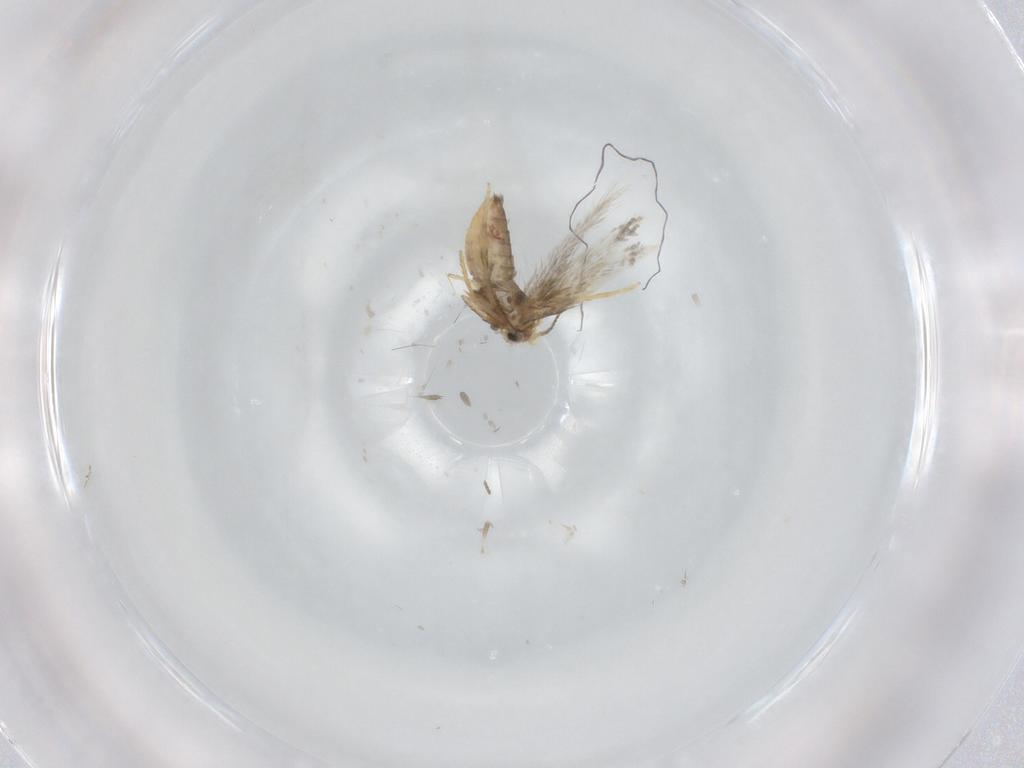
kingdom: Animalia
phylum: Arthropoda
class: Insecta
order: Lepidoptera
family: Nepticulidae
